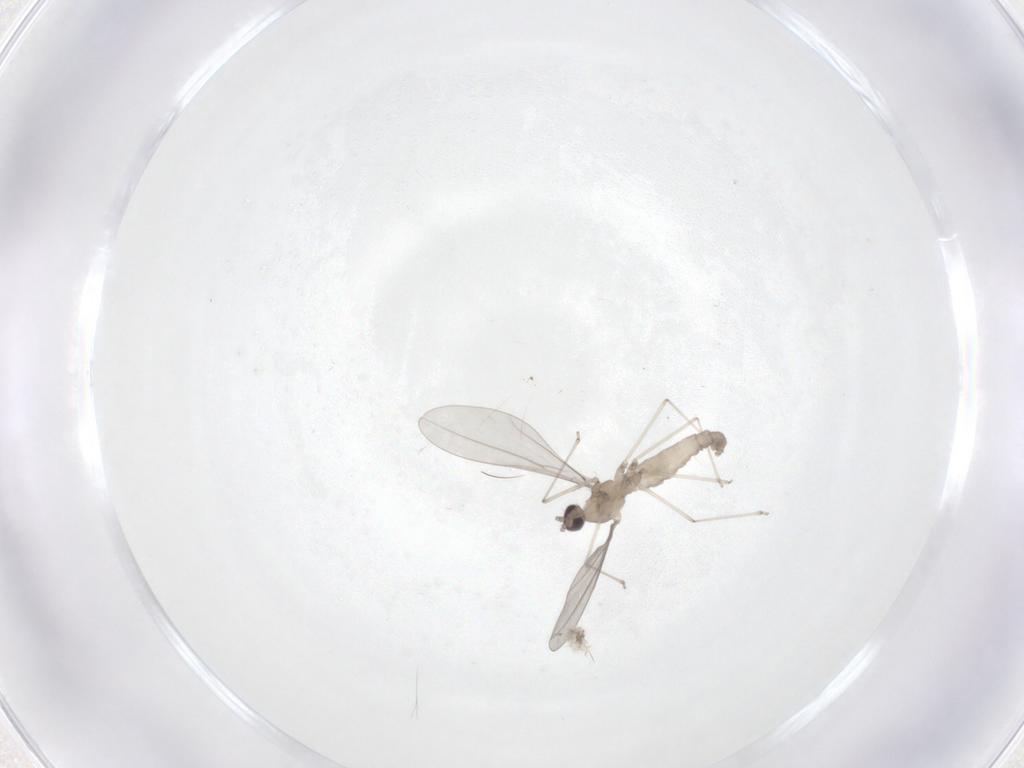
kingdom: Animalia
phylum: Arthropoda
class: Insecta
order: Diptera
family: Cecidomyiidae
